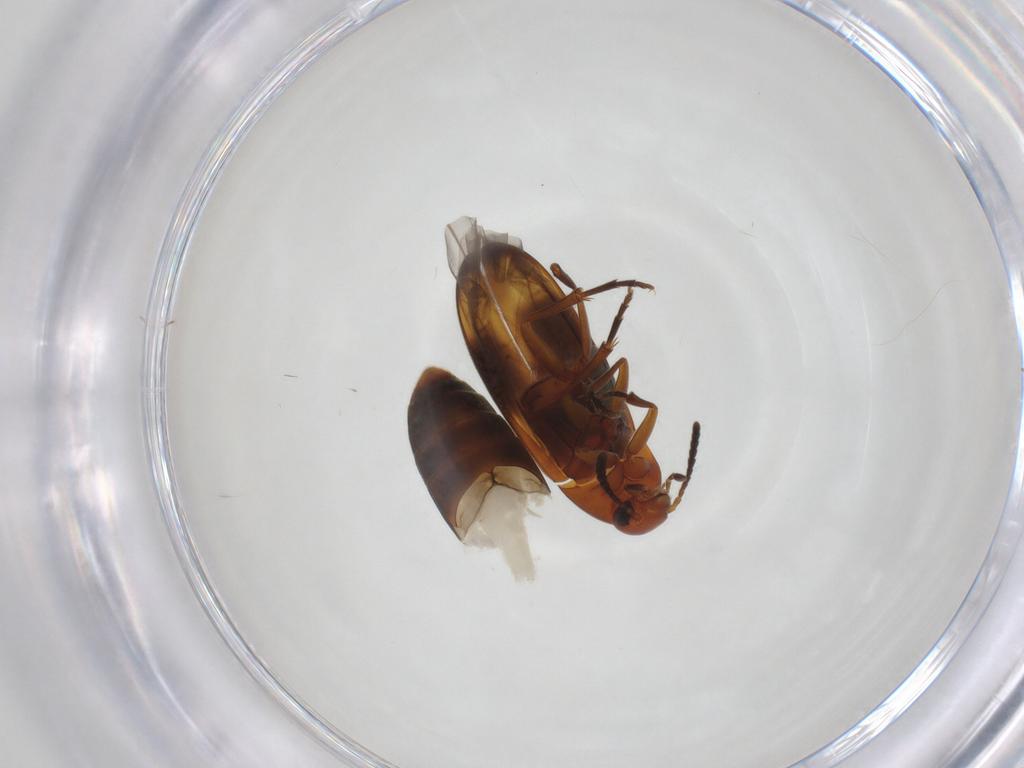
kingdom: Animalia
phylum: Arthropoda
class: Insecta
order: Coleoptera
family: Scraptiidae
